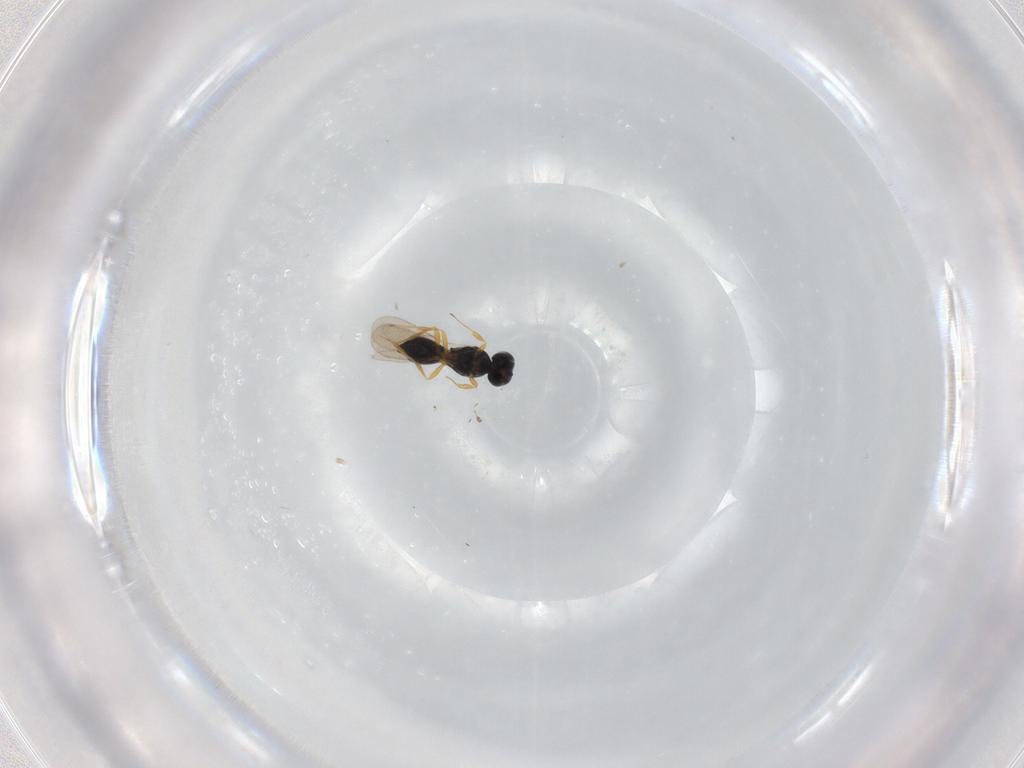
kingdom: Animalia
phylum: Arthropoda
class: Insecta
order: Hymenoptera
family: Scelionidae
